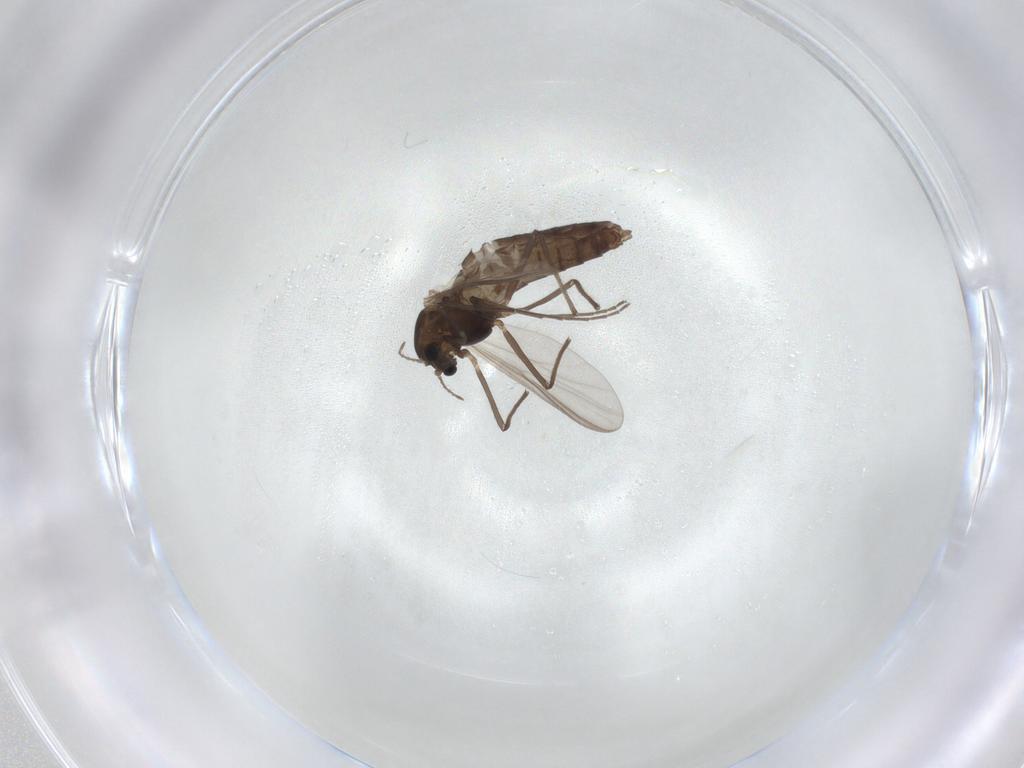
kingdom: Animalia
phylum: Arthropoda
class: Insecta
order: Diptera
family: Chironomidae
